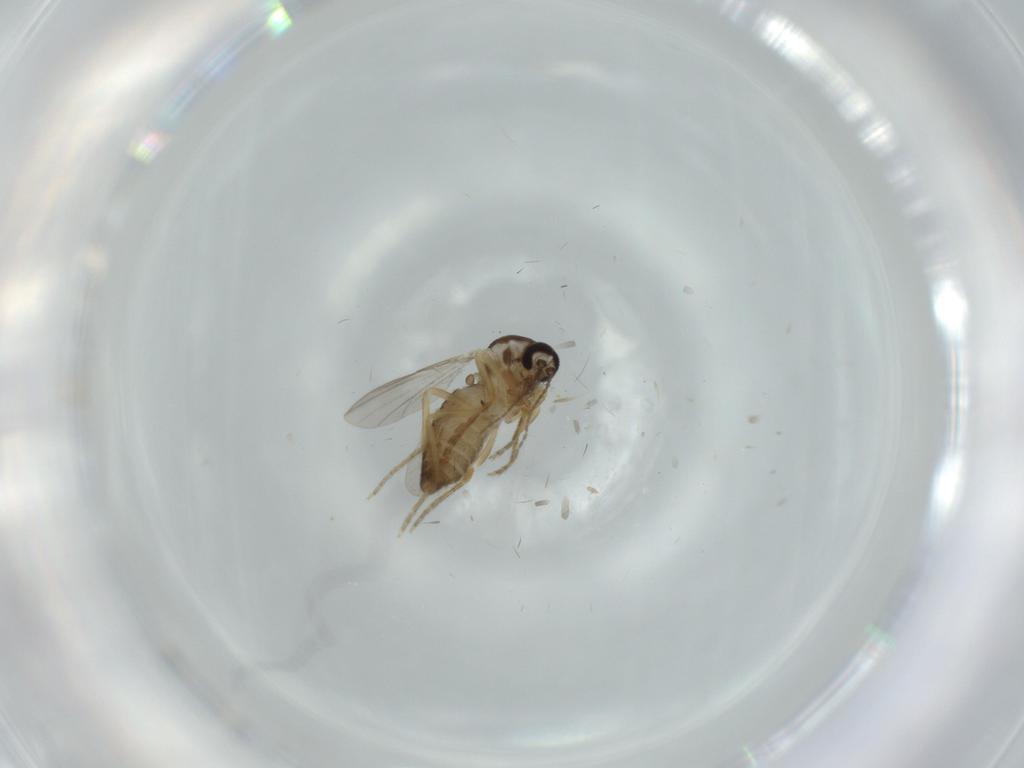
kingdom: Animalia
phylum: Arthropoda
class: Insecta
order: Diptera
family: Ceratopogonidae
